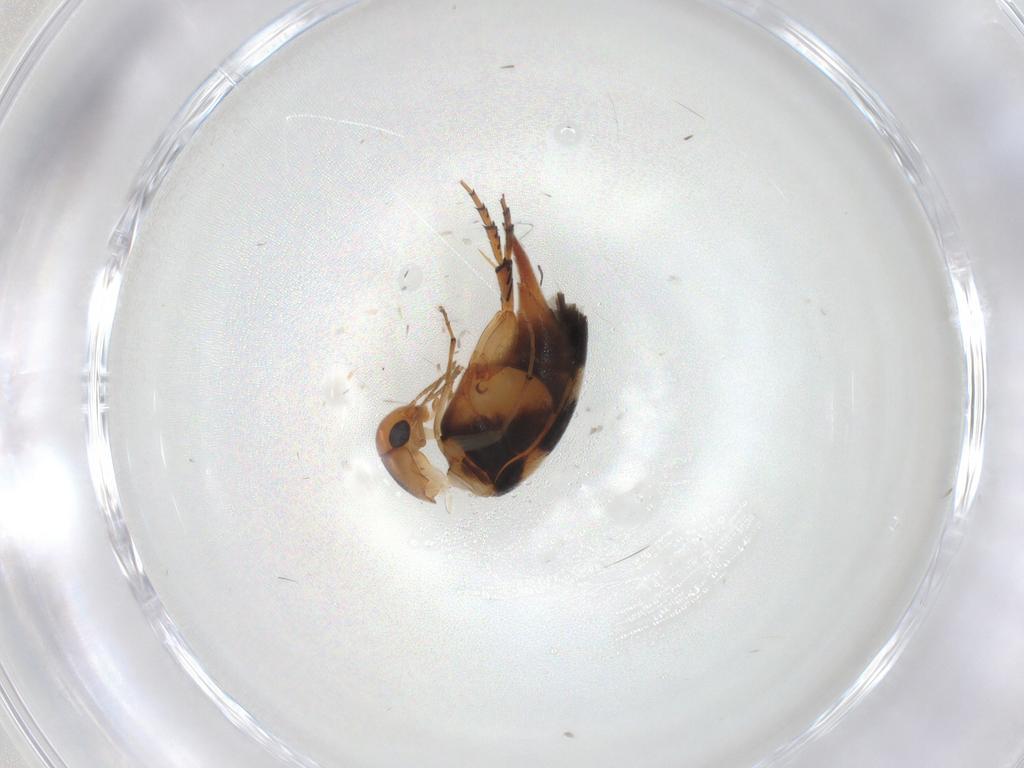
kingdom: Animalia
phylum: Arthropoda
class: Insecta
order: Coleoptera
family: Mordellidae
